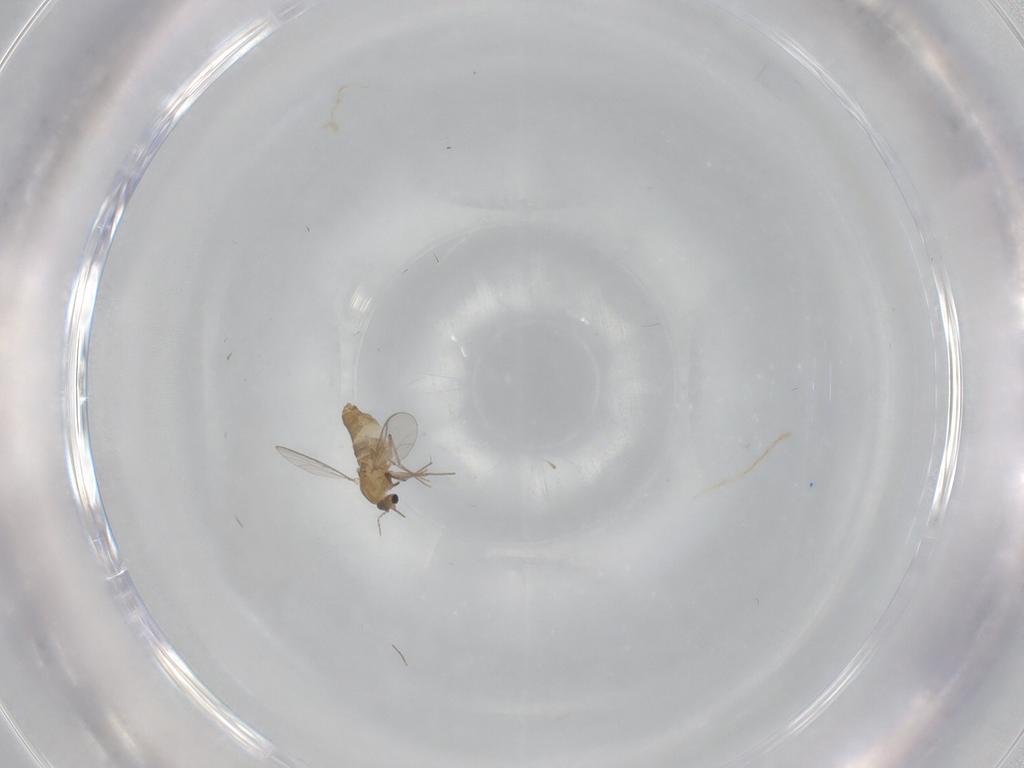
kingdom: Animalia
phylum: Arthropoda
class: Insecta
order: Diptera
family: Chironomidae
